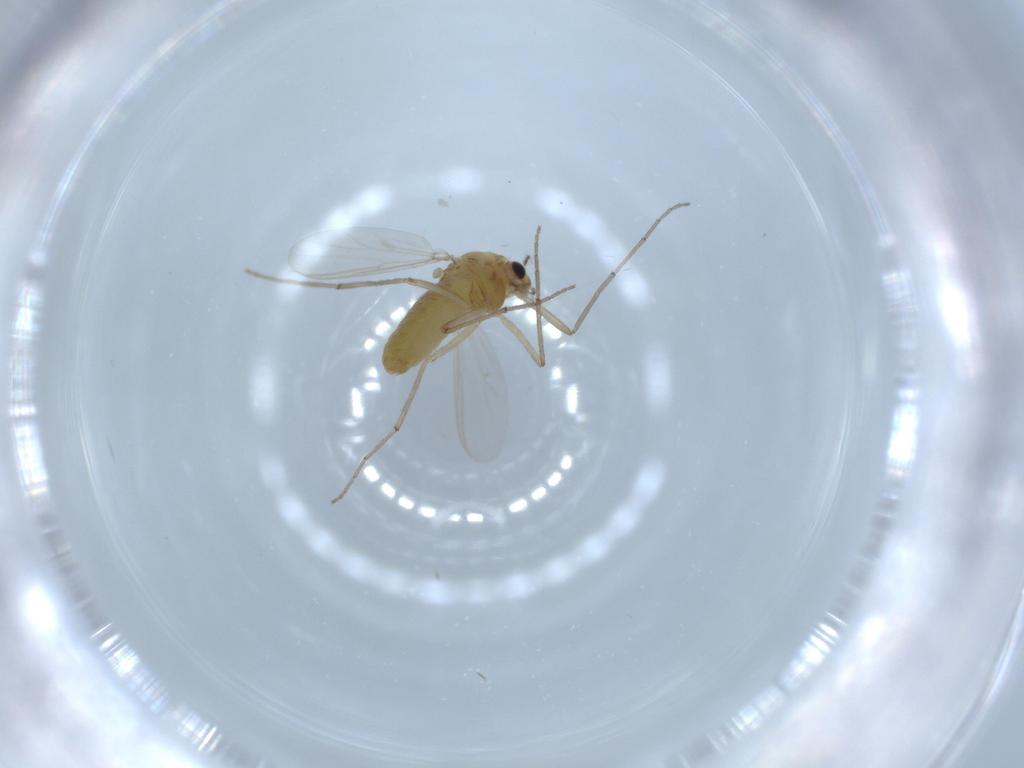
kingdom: Animalia
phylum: Arthropoda
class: Insecta
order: Diptera
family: Chironomidae
